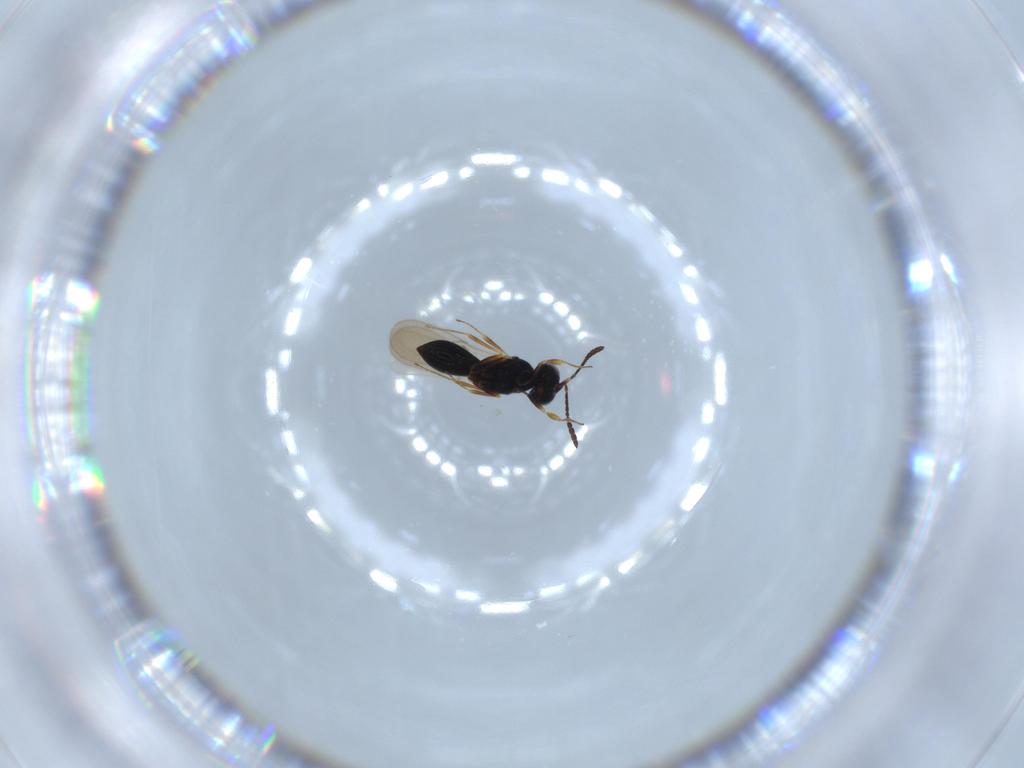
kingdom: Animalia
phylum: Arthropoda
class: Insecta
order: Hymenoptera
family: Scelionidae
